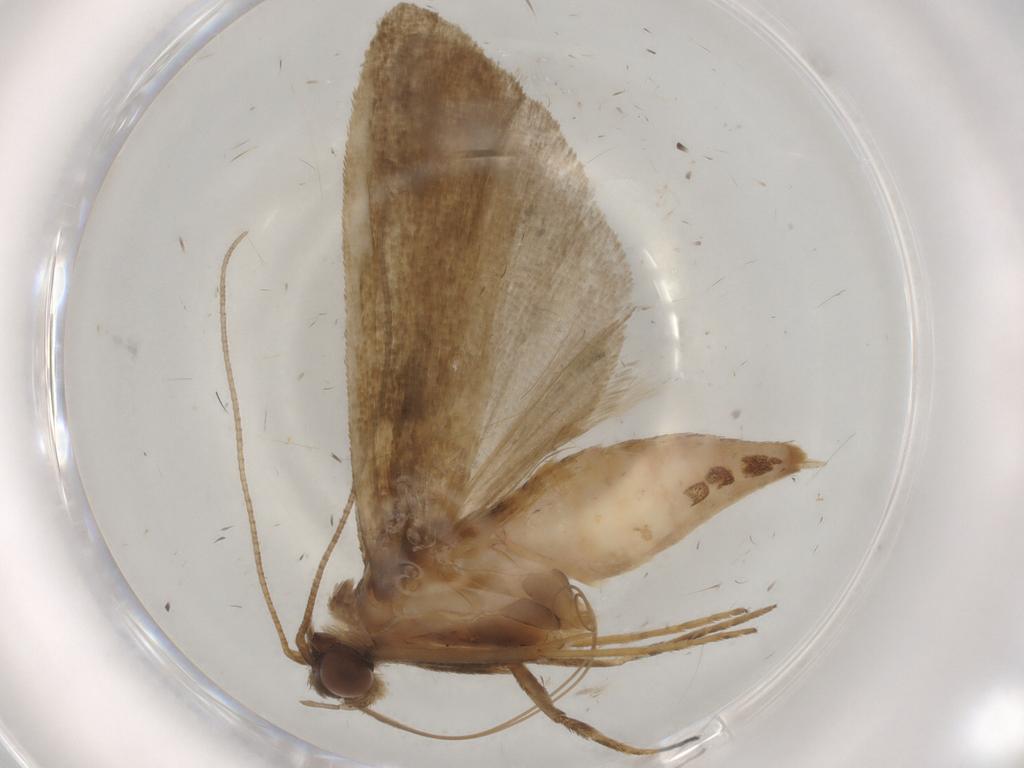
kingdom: Animalia
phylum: Arthropoda
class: Insecta
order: Lepidoptera
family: Noctuidae
